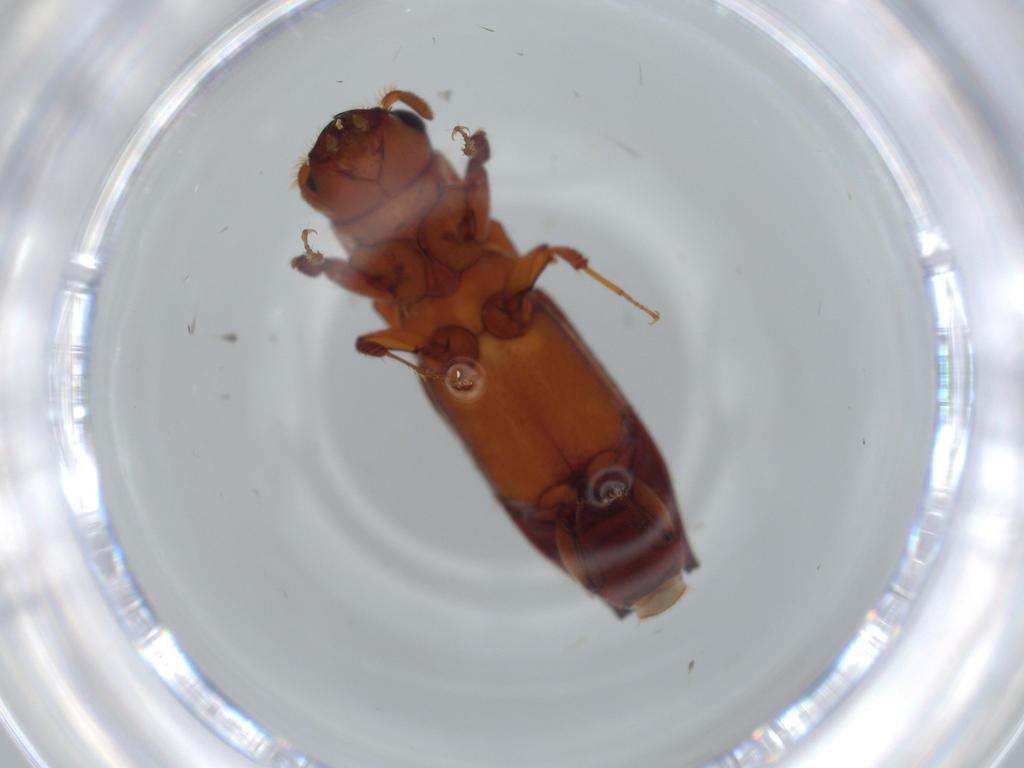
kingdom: Animalia
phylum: Arthropoda
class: Insecta
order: Coleoptera
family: Curculionidae
